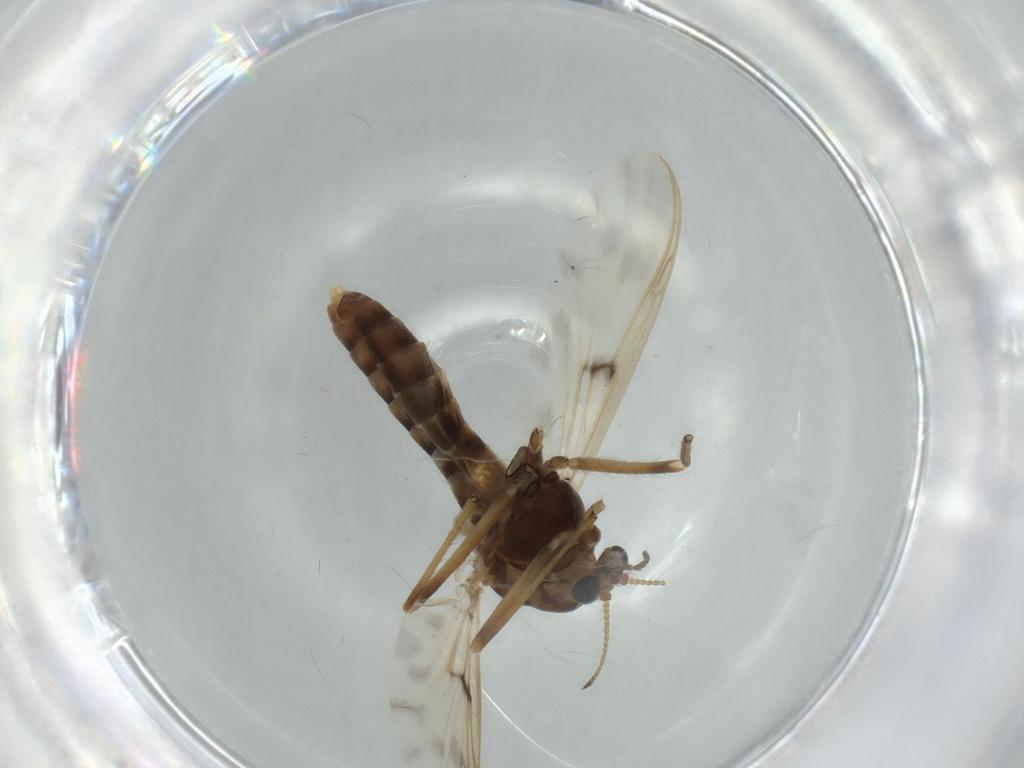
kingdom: Animalia
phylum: Arthropoda
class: Insecta
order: Diptera
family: Chironomidae
